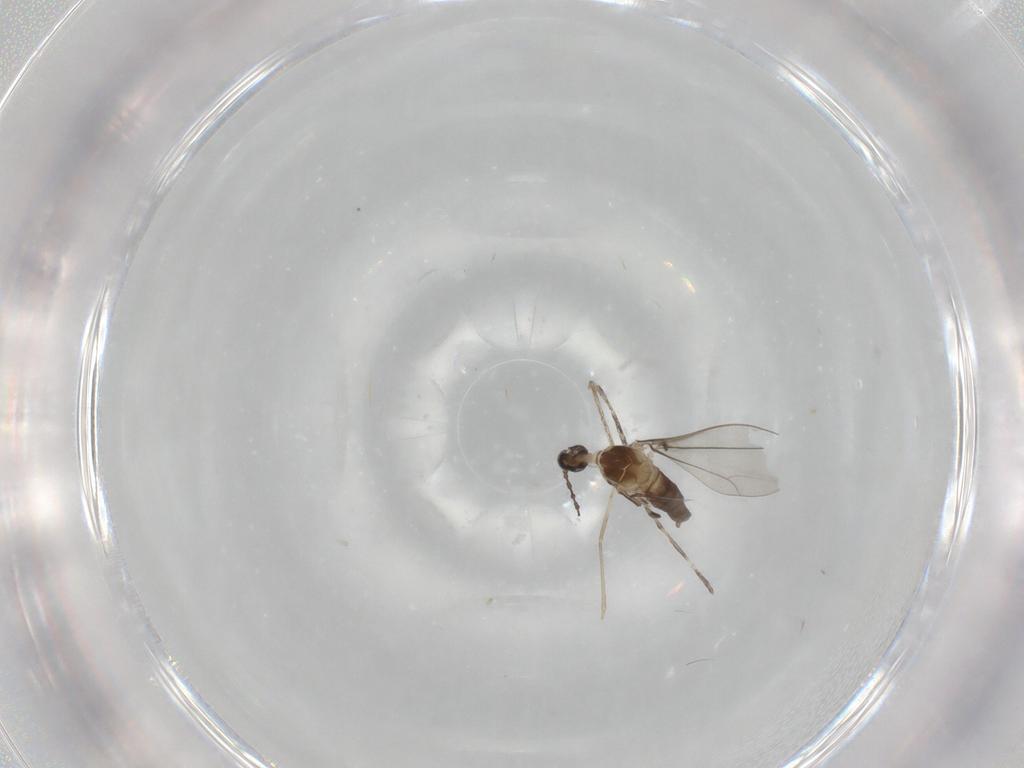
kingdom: Animalia
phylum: Arthropoda
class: Insecta
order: Diptera
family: Cecidomyiidae
